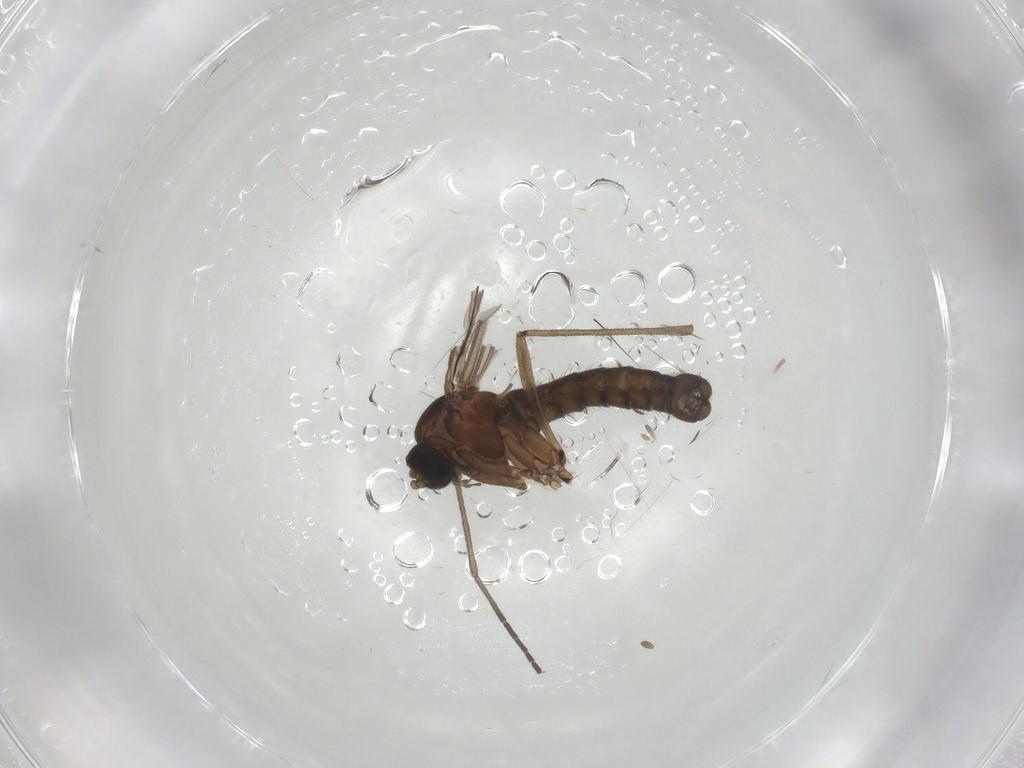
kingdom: Animalia
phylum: Arthropoda
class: Insecta
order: Diptera
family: Sciaridae
